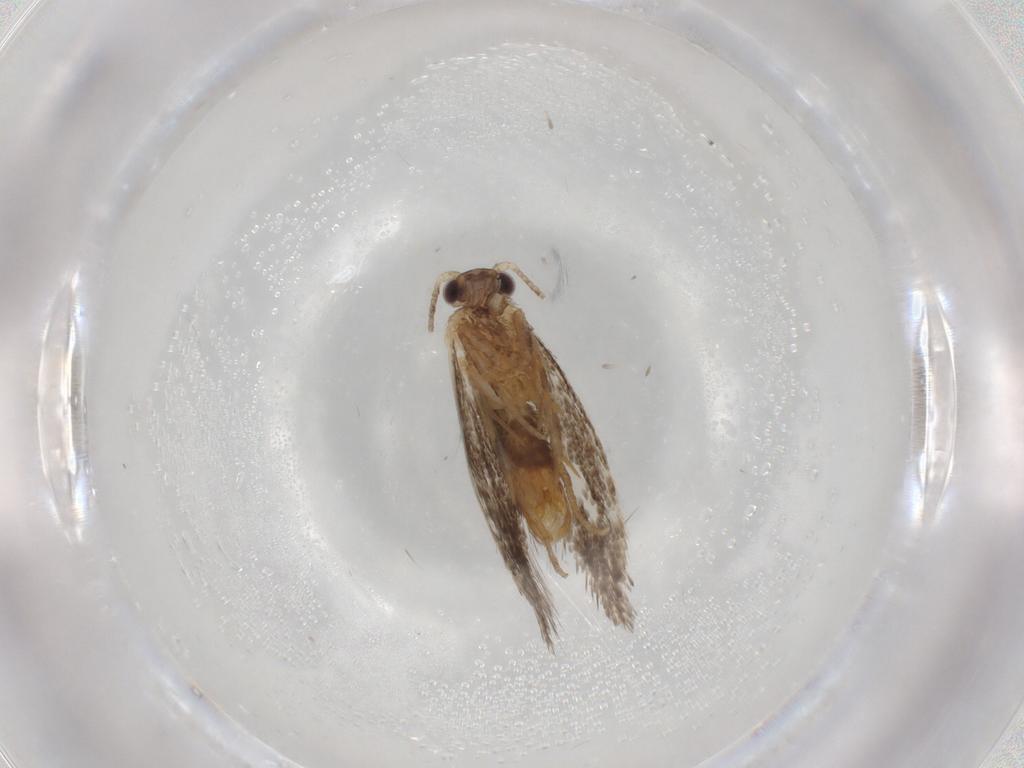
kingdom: Animalia
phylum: Arthropoda
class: Insecta
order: Lepidoptera
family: Tineidae
